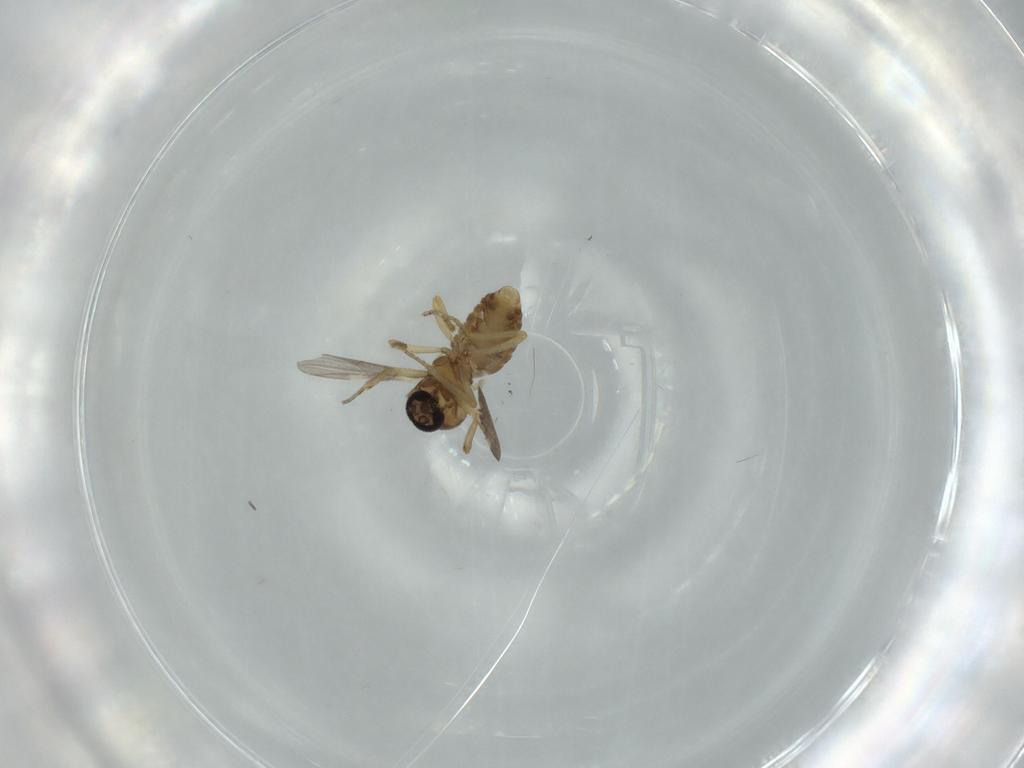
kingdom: Animalia
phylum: Arthropoda
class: Insecta
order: Diptera
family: Ceratopogonidae
